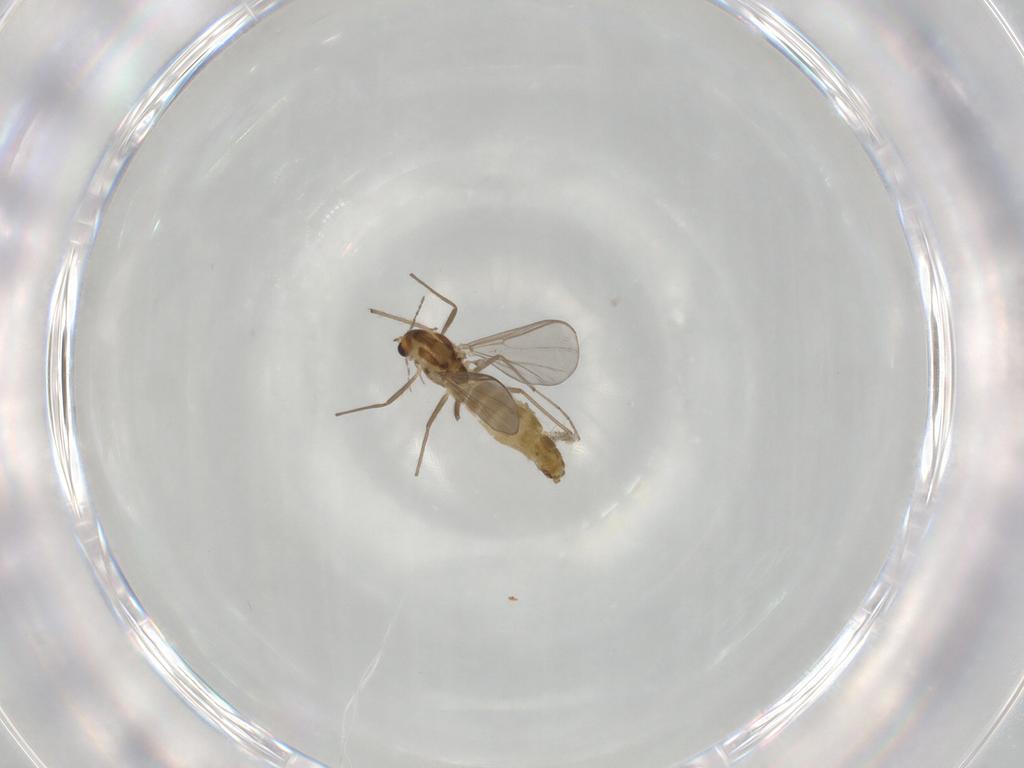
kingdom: Animalia
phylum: Arthropoda
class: Insecta
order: Diptera
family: Chironomidae
